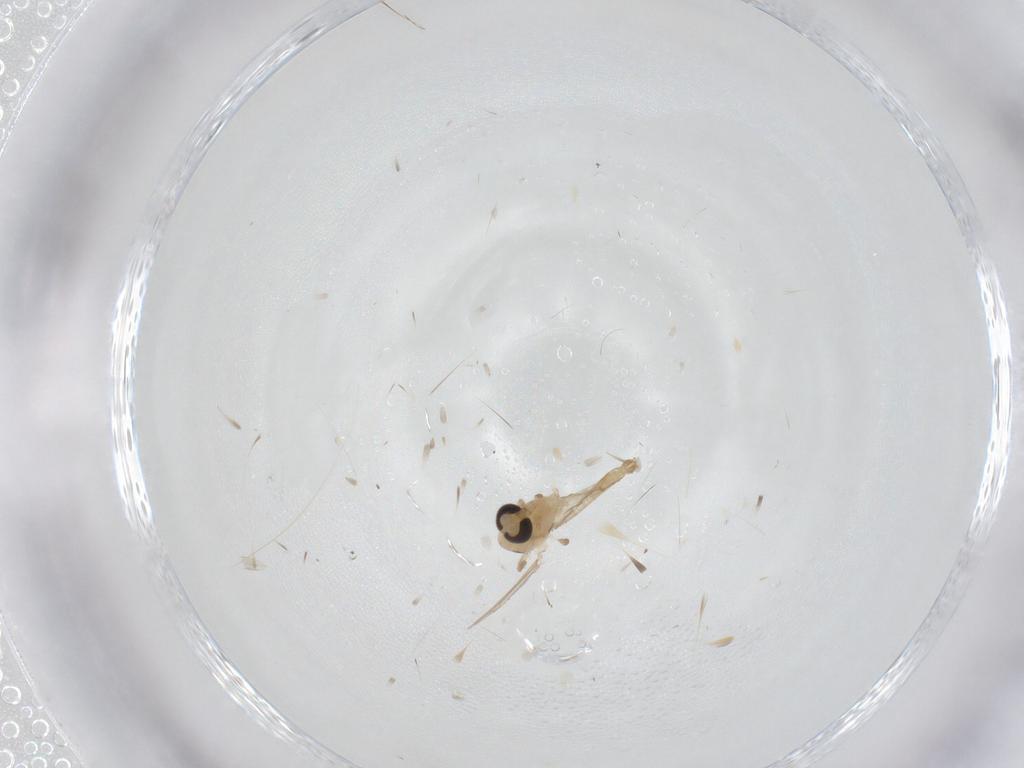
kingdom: Animalia
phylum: Arthropoda
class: Insecta
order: Diptera
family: Chironomidae
